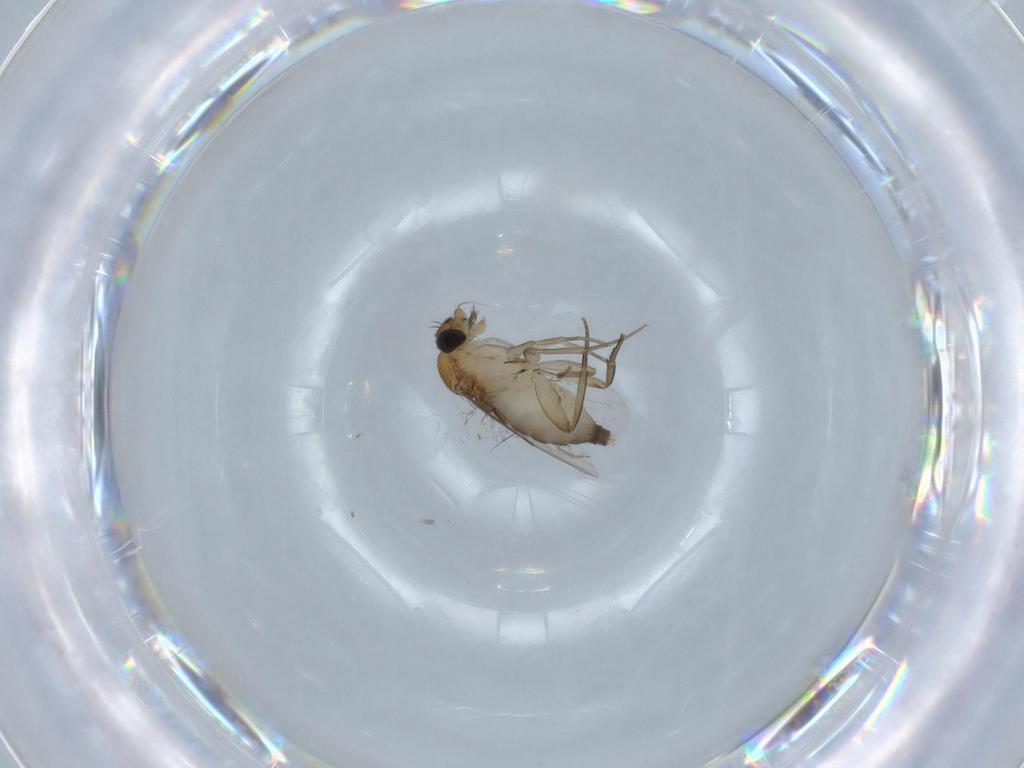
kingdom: Animalia
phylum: Arthropoda
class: Insecta
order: Diptera
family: Phoridae
